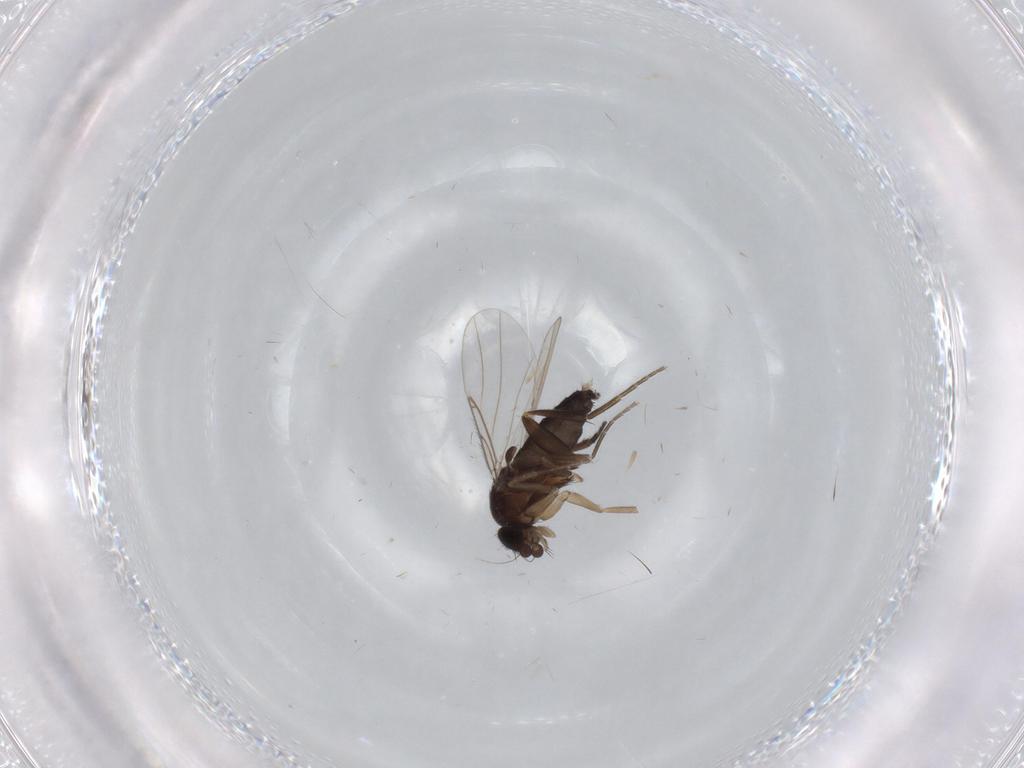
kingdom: Animalia
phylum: Arthropoda
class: Insecta
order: Diptera
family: Phoridae
